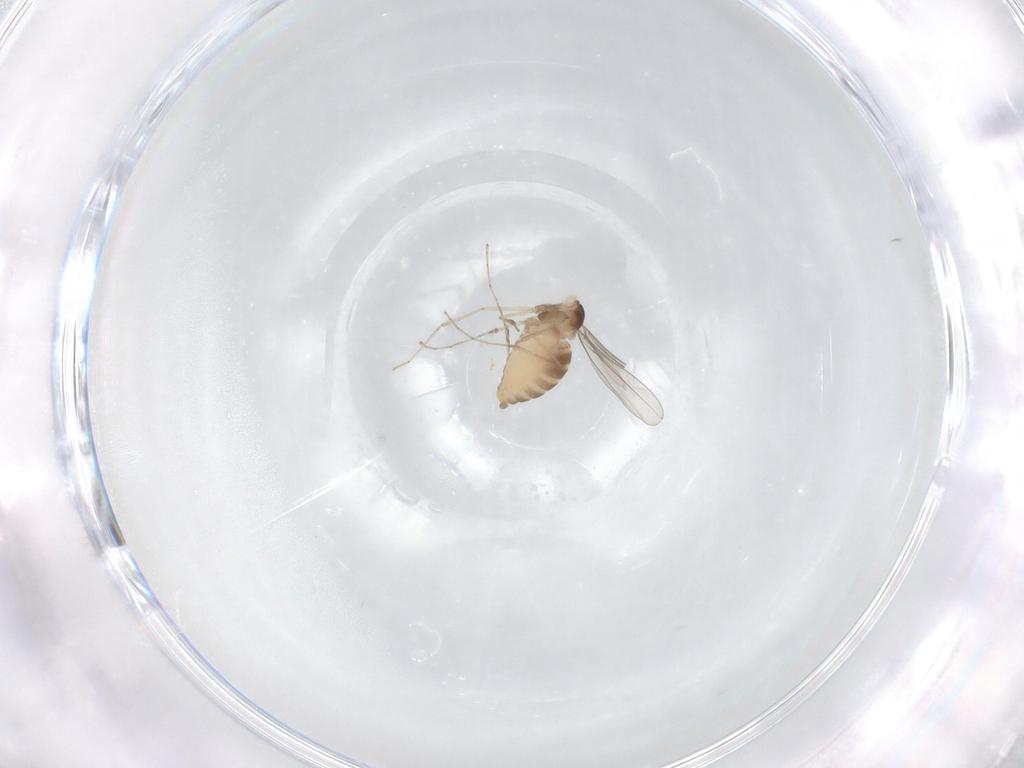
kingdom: Animalia
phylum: Arthropoda
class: Insecta
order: Diptera
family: Cecidomyiidae
